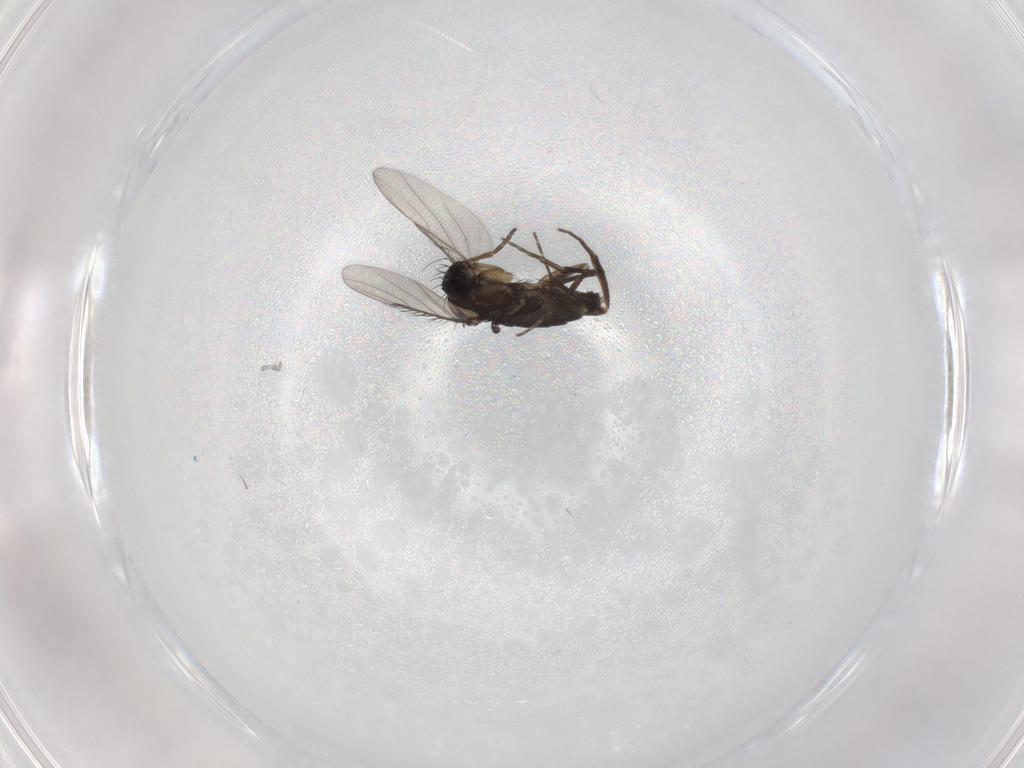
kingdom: Animalia
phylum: Arthropoda
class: Insecta
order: Diptera
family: Phoridae
